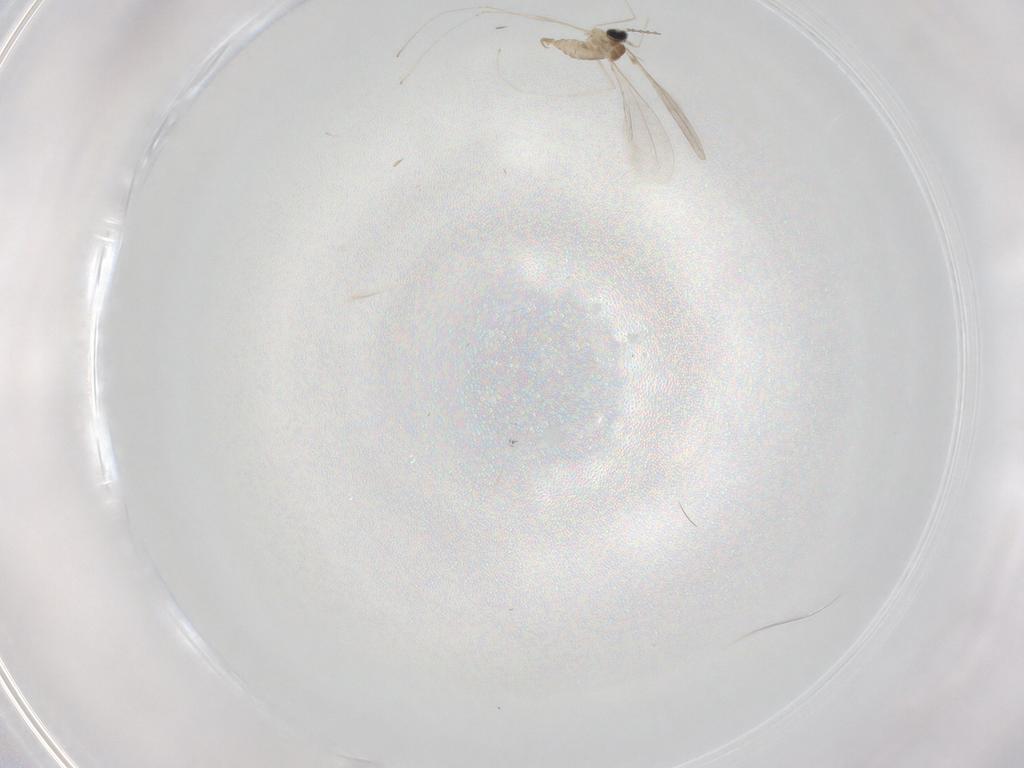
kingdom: Animalia
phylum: Arthropoda
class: Insecta
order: Diptera
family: Cecidomyiidae
